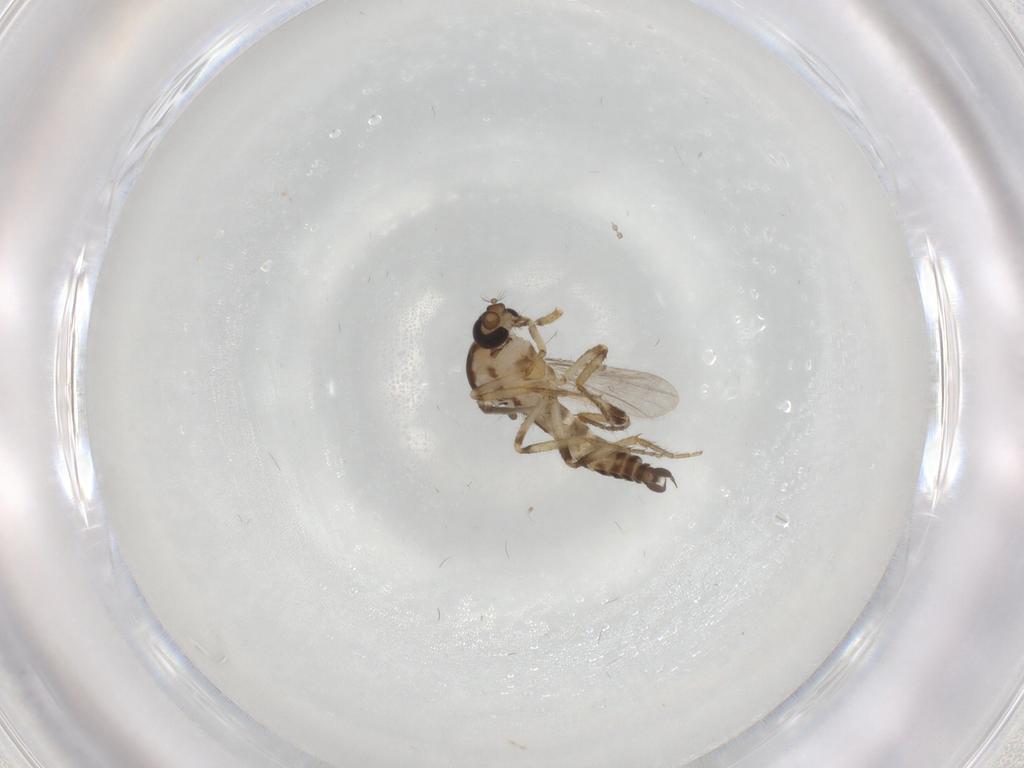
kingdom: Animalia
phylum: Arthropoda
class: Insecta
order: Diptera
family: Ceratopogonidae
